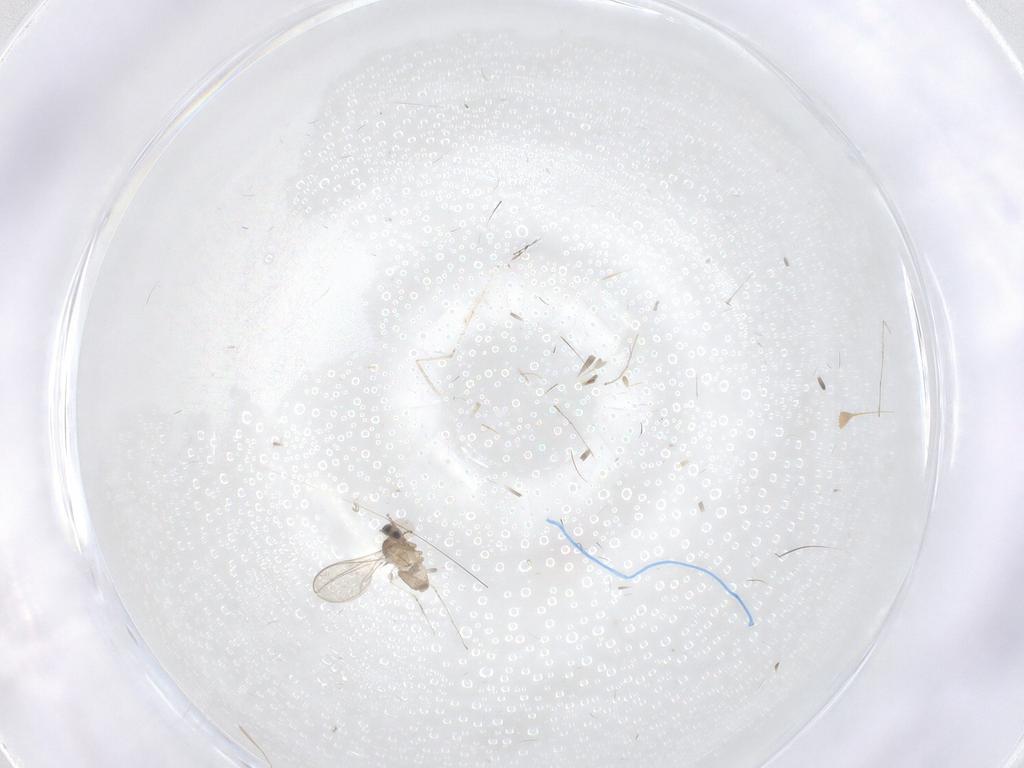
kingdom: Animalia
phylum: Arthropoda
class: Insecta
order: Diptera
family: Cecidomyiidae
